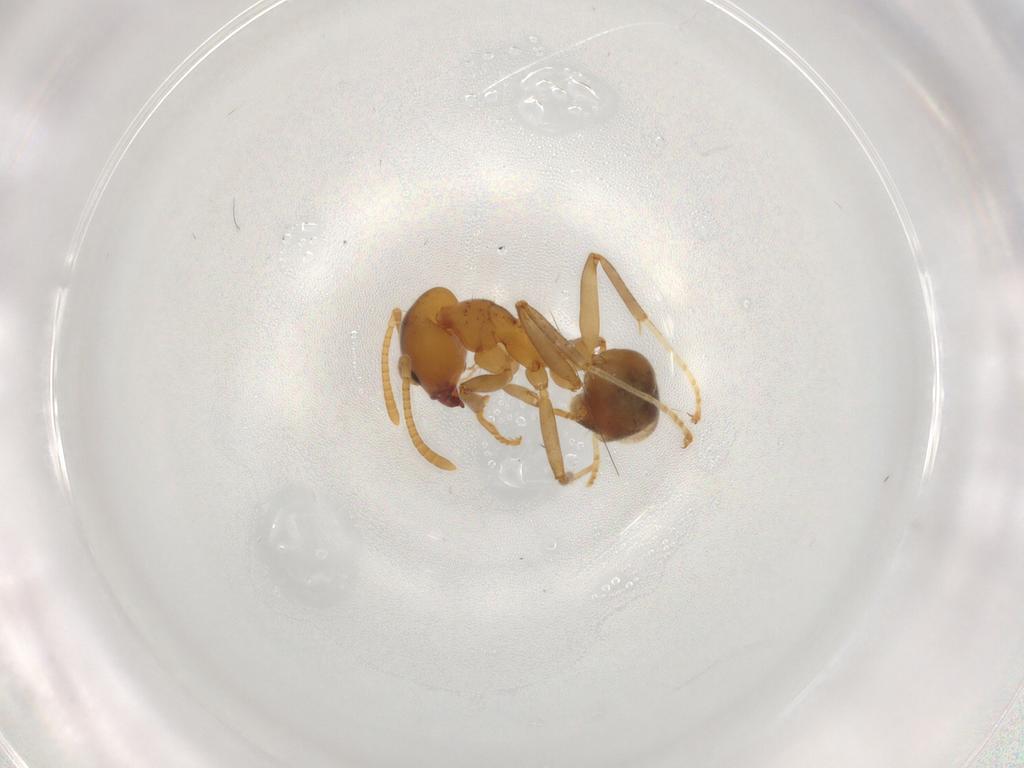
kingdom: Animalia
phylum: Arthropoda
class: Insecta
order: Hymenoptera
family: Formicidae
